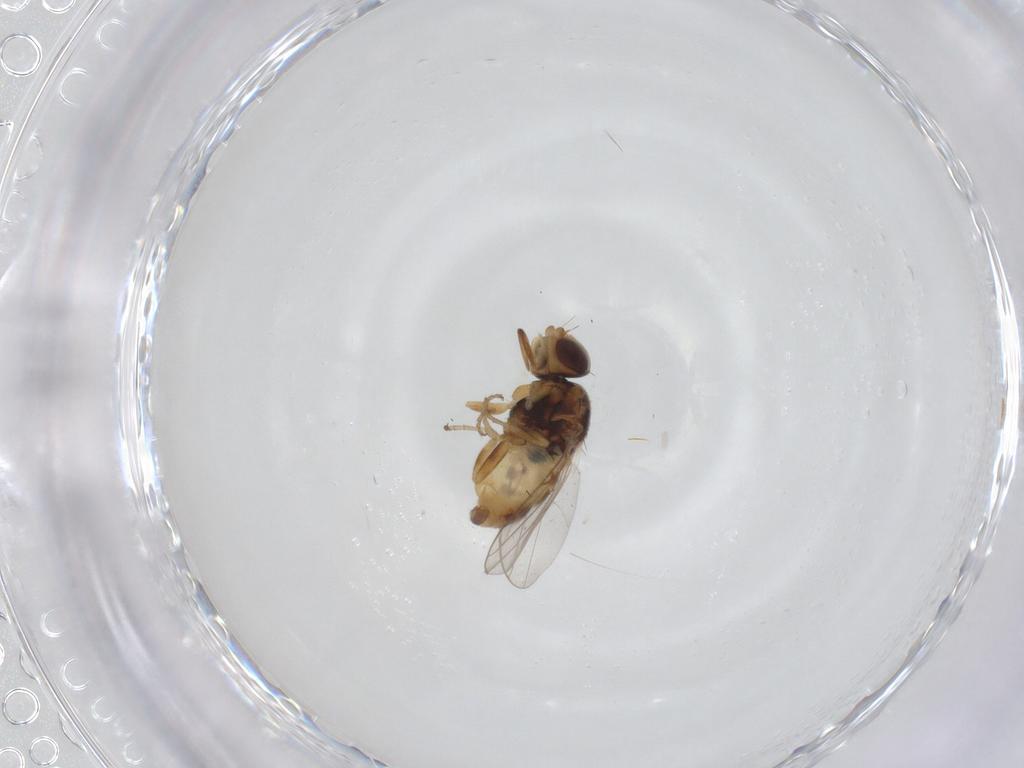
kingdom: Animalia
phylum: Arthropoda
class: Insecta
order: Diptera
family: Chloropidae
